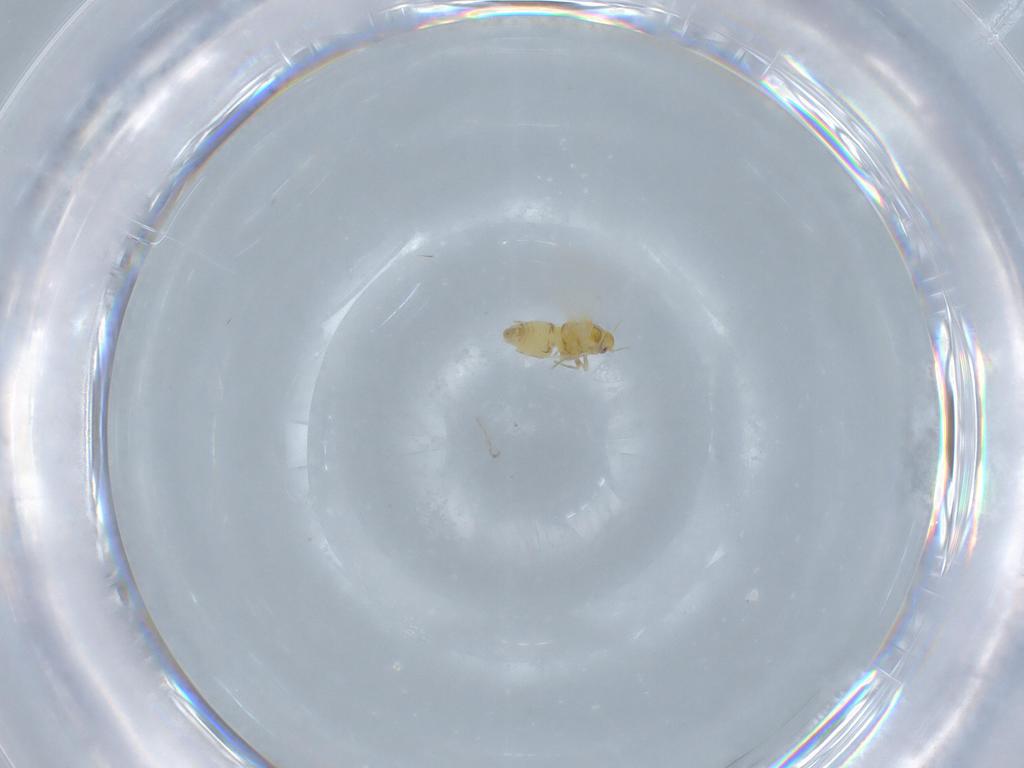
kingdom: Animalia
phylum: Arthropoda
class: Insecta
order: Hemiptera
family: Aleyrodidae
